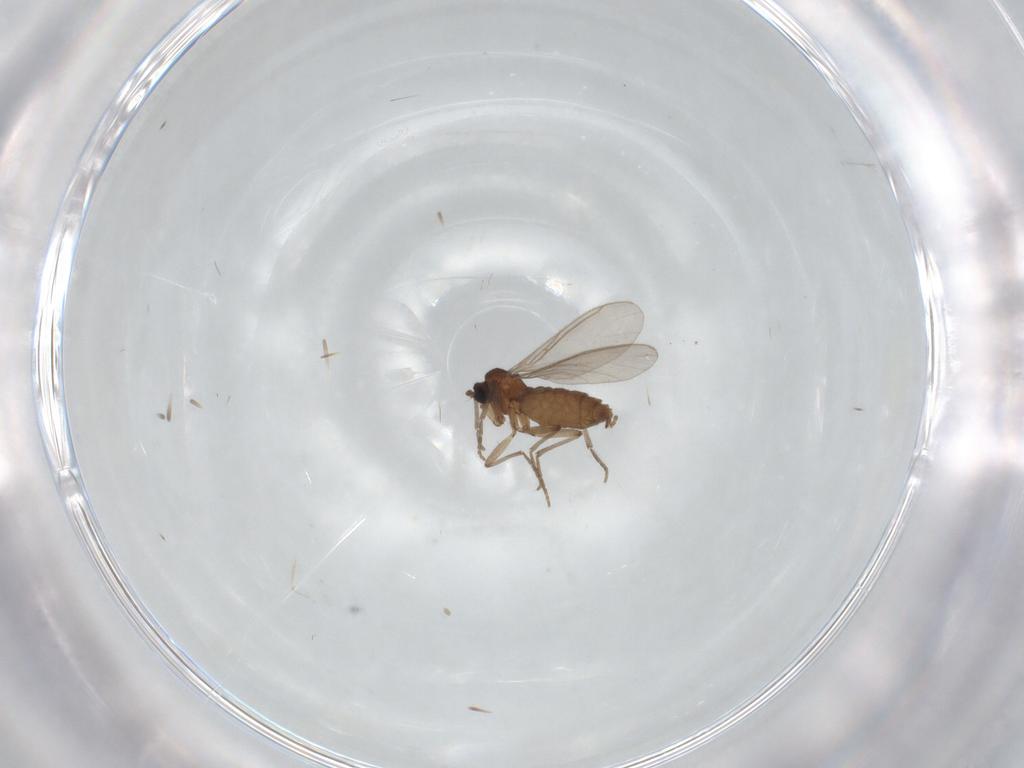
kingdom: Animalia
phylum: Arthropoda
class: Insecta
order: Diptera
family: Sciaridae
